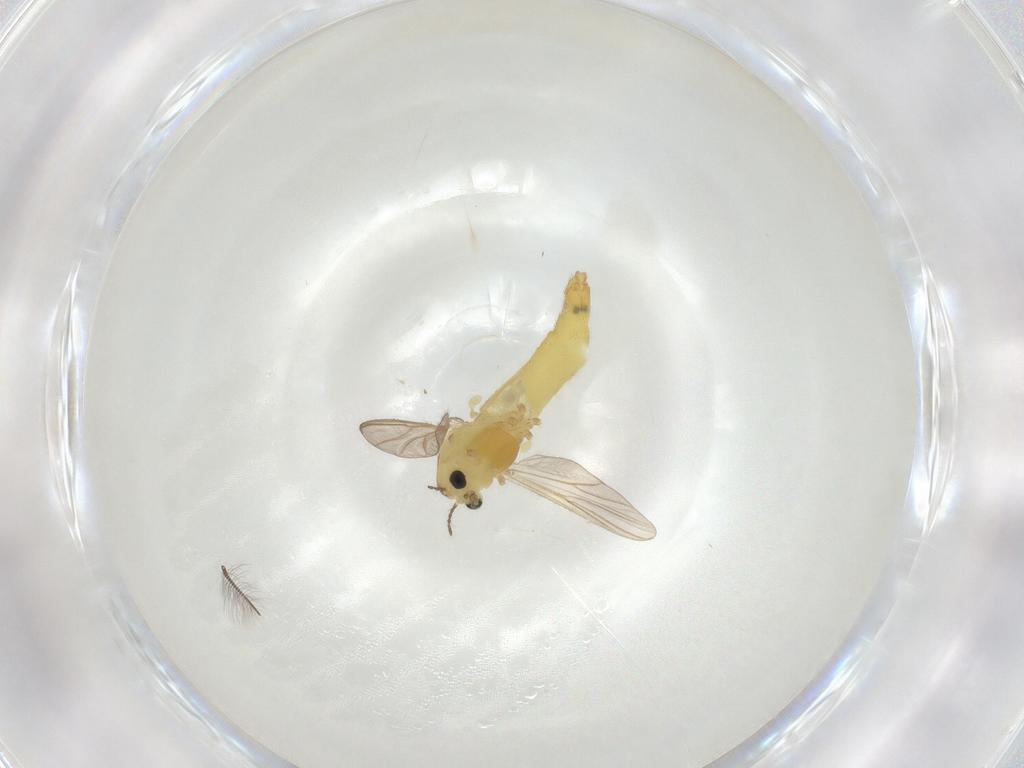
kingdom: Animalia
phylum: Arthropoda
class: Insecta
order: Diptera
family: Chironomidae
